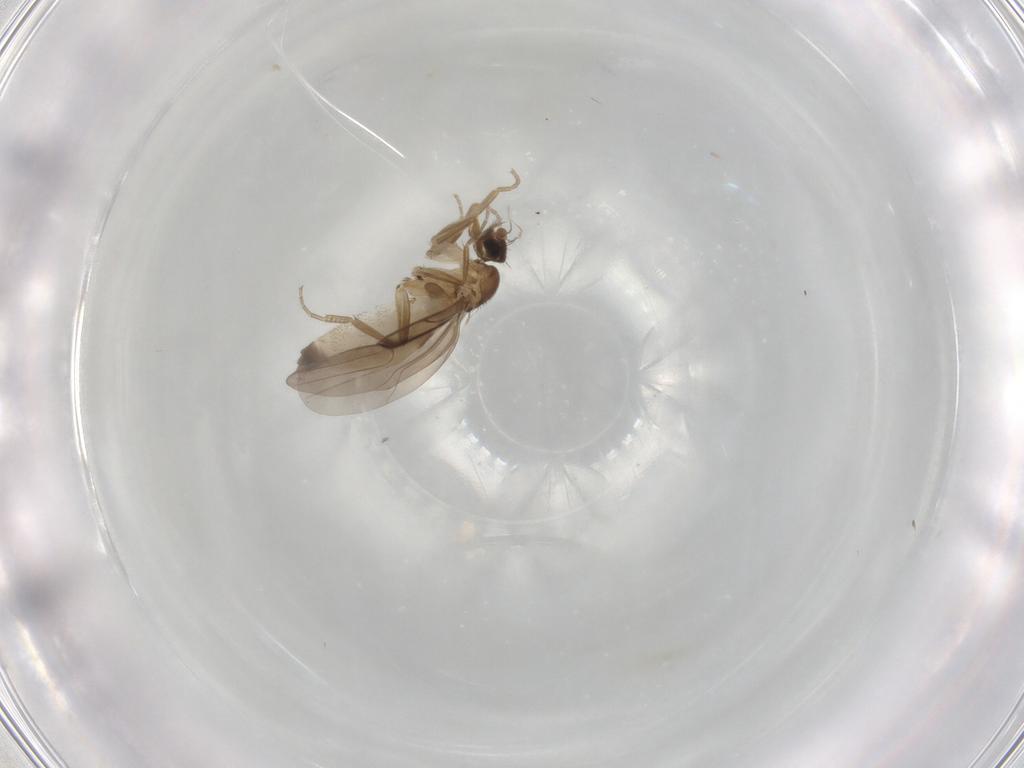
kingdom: Animalia
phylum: Arthropoda
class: Insecta
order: Diptera
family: Phoridae
